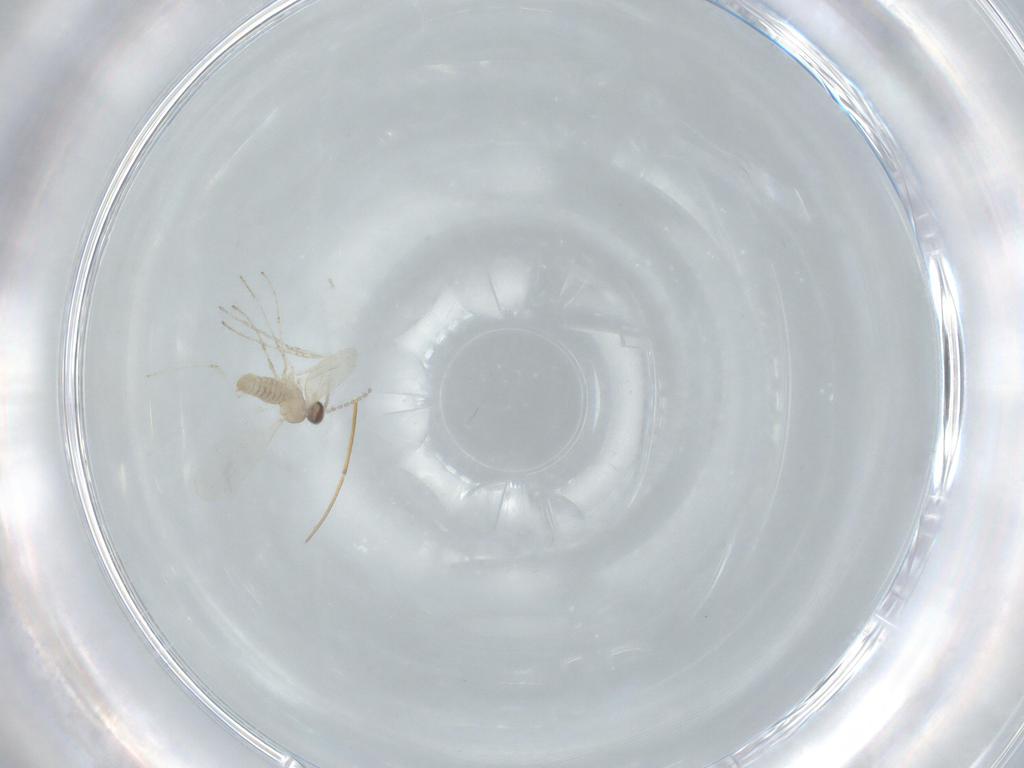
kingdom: Animalia
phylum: Arthropoda
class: Insecta
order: Diptera
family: Cecidomyiidae
